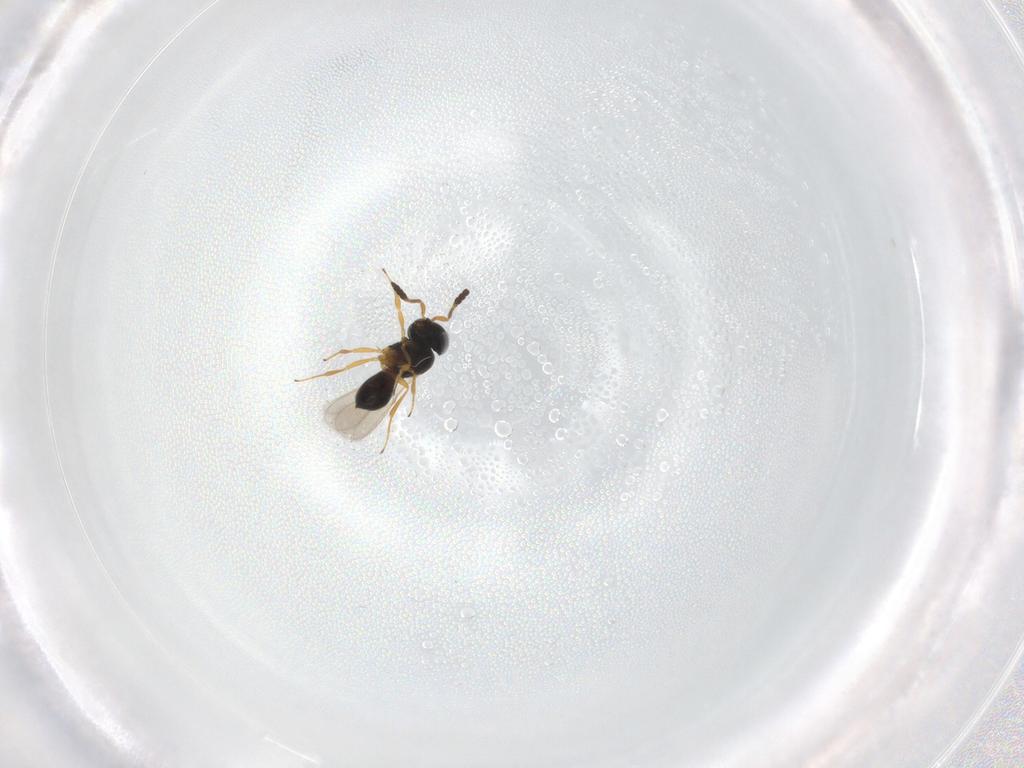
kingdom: Animalia
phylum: Arthropoda
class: Insecta
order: Hymenoptera
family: Scelionidae
